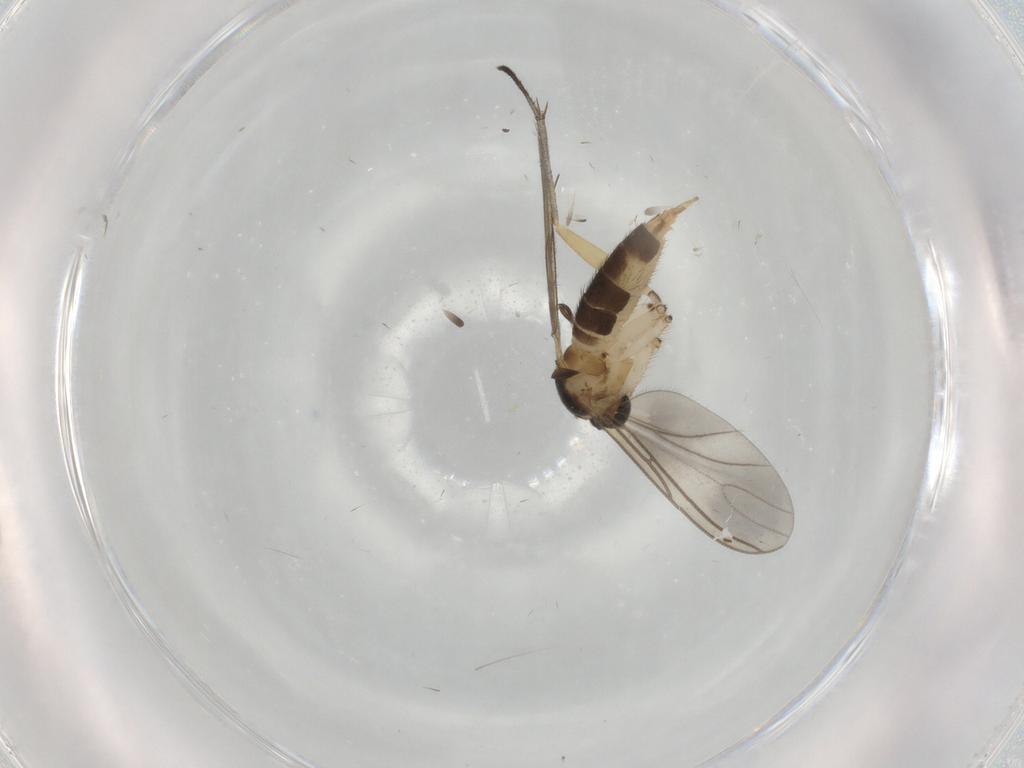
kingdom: Animalia
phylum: Arthropoda
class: Insecta
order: Diptera
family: Sciaridae
